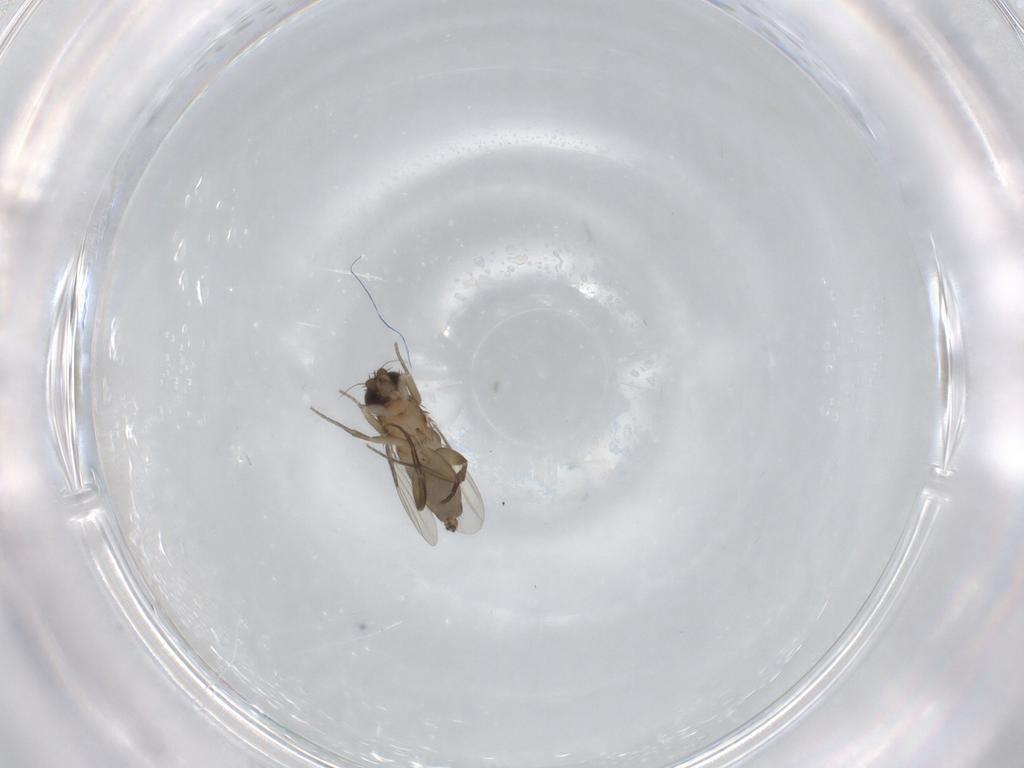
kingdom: Animalia
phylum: Arthropoda
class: Insecta
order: Diptera
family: Phoridae
